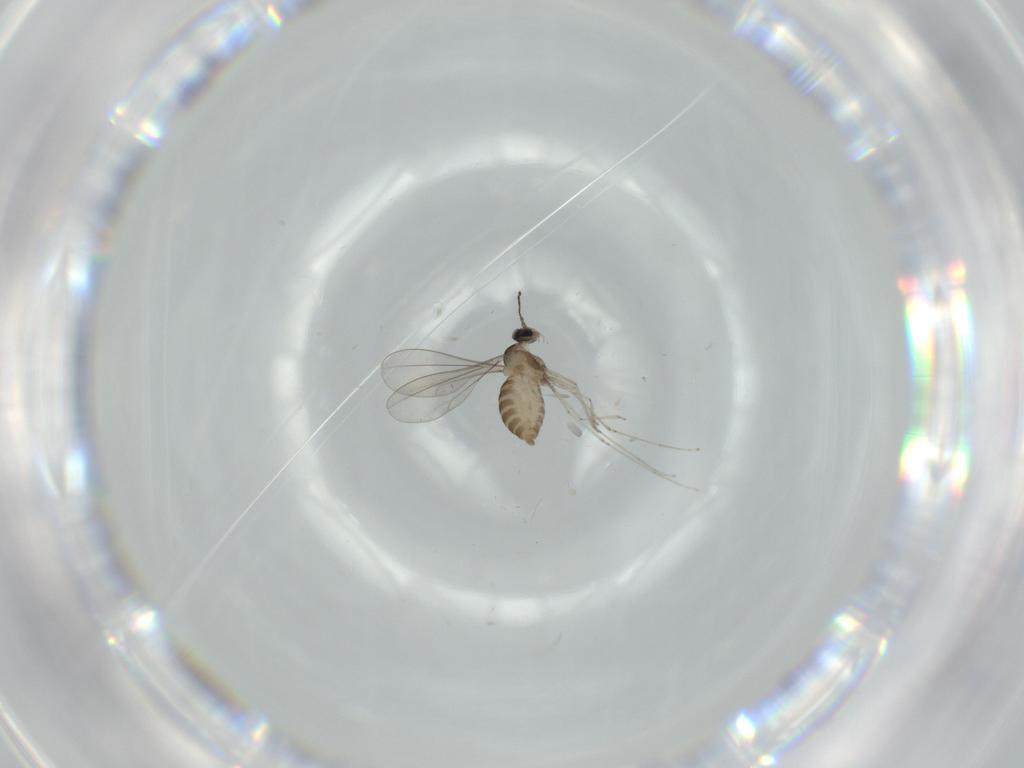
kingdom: Animalia
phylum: Arthropoda
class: Insecta
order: Diptera
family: Cecidomyiidae
